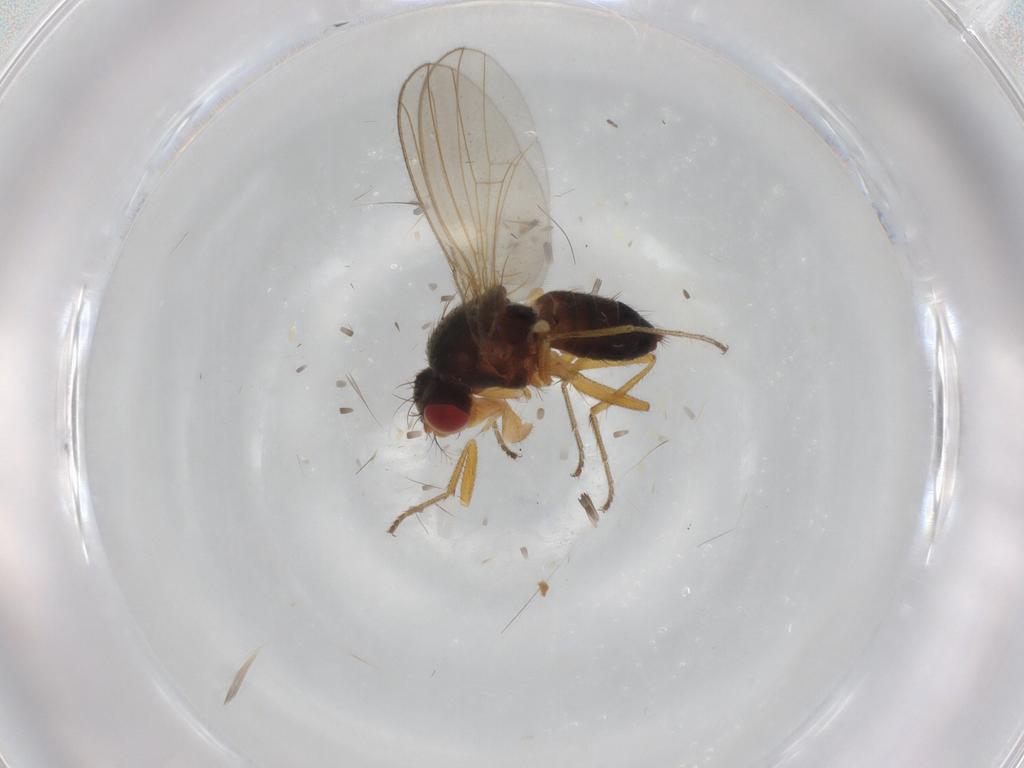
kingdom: Animalia
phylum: Arthropoda
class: Insecta
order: Diptera
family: Drosophilidae
